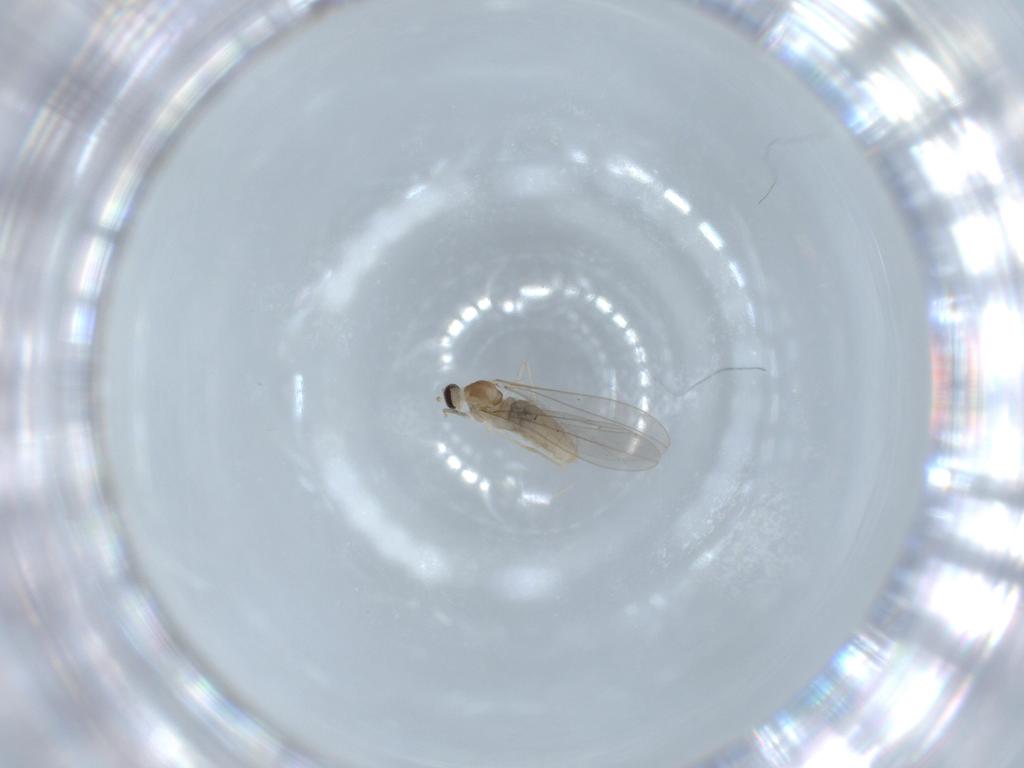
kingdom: Animalia
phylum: Arthropoda
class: Insecta
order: Diptera
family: Cecidomyiidae
